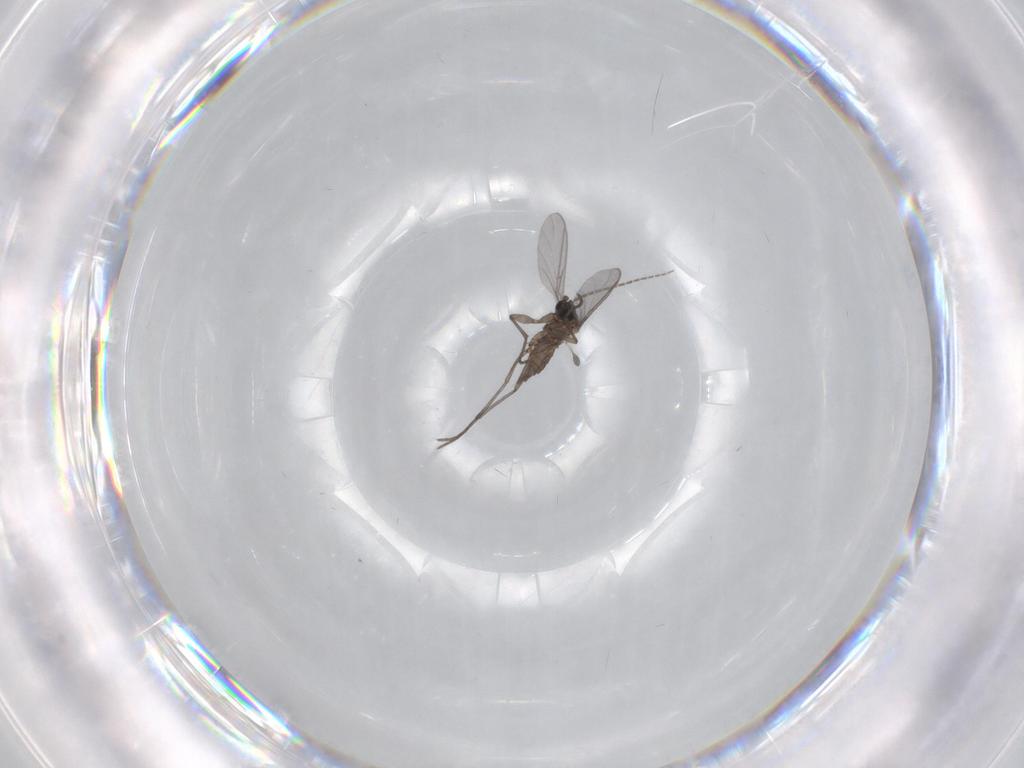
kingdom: Animalia
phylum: Arthropoda
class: Insecta
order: Diptera
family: Sciaridae
